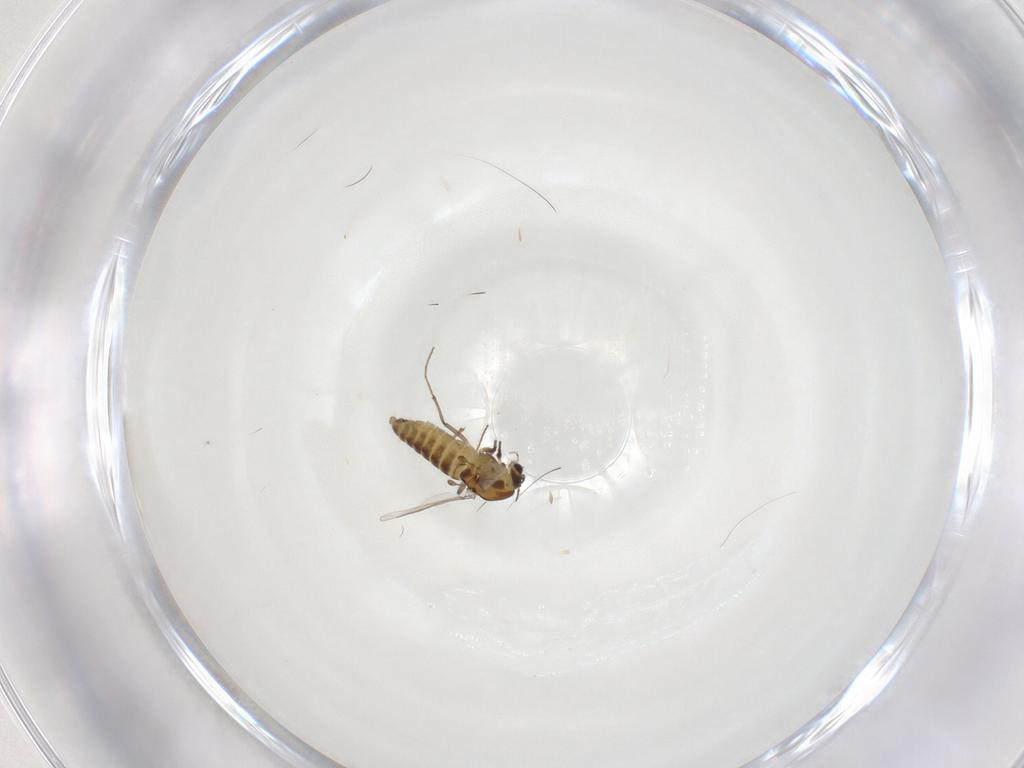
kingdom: Animalia
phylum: Arthropoda
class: Insecta
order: Diptera
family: Chironomidae
